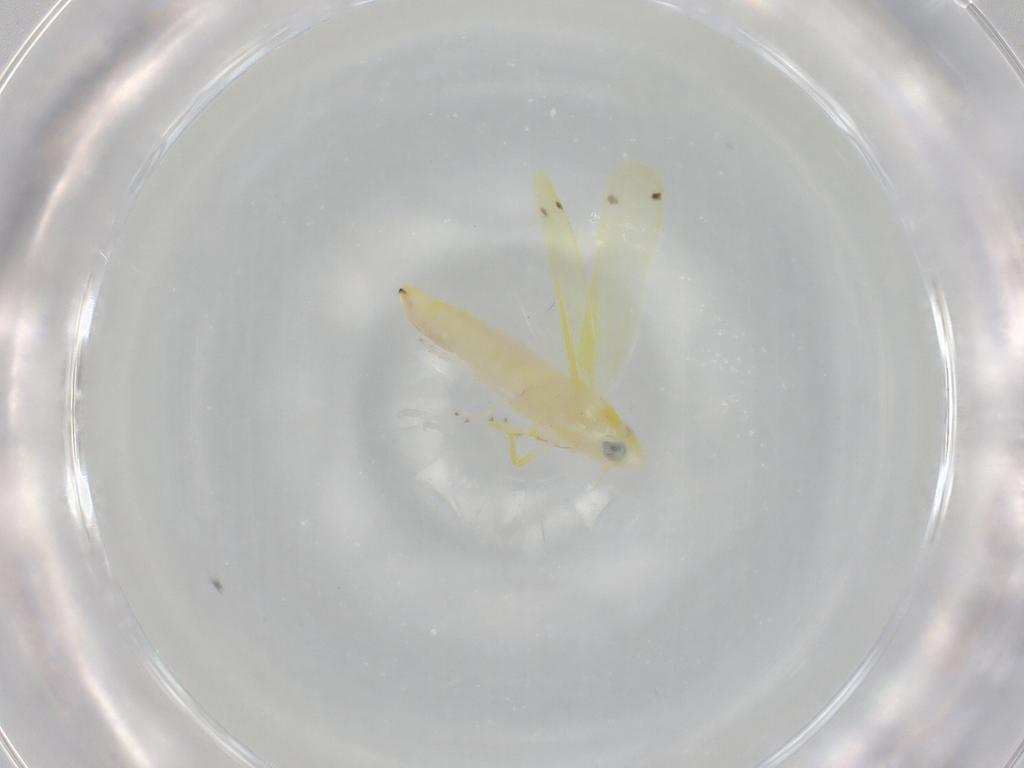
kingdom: Animalia
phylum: Arthropoda
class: Insecta
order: Hemiptera
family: Cicadellidae
